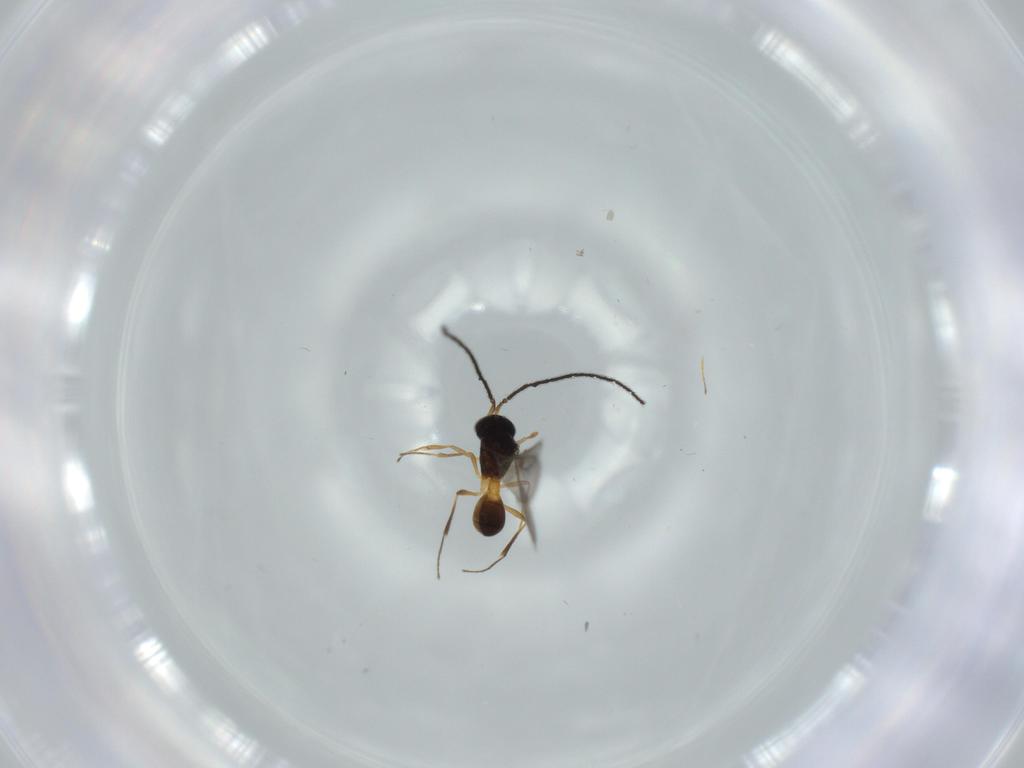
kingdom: Animalia
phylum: Arthropoda
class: Insecta
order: Hymenoptera
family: Scelionidae
